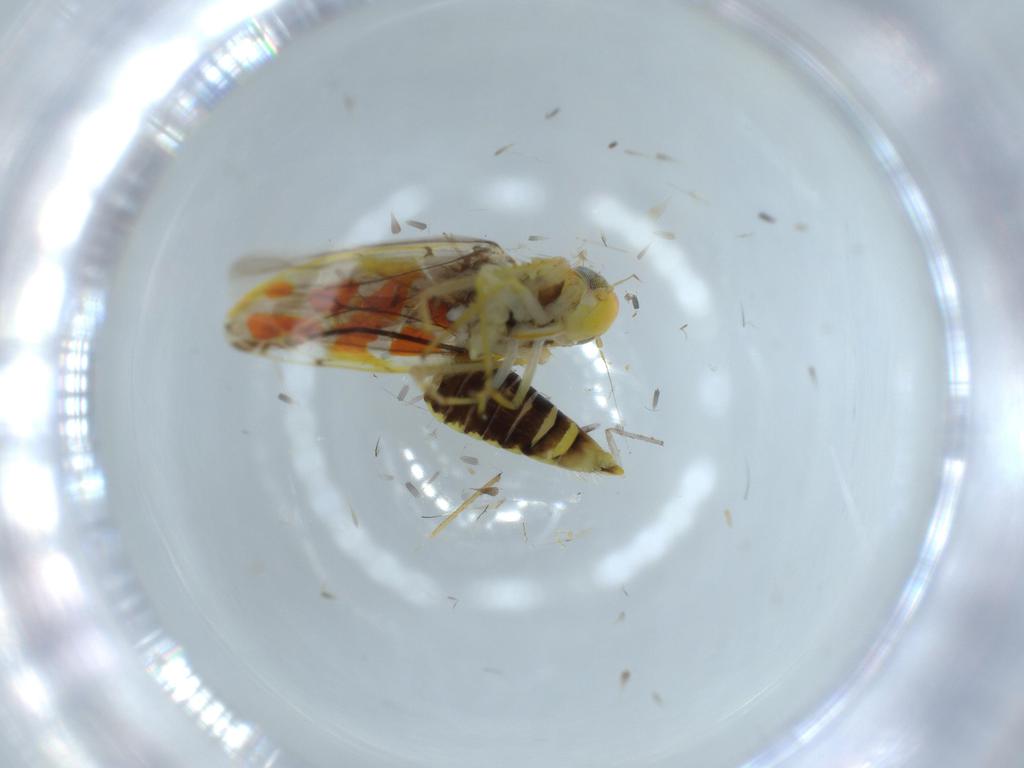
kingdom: Animalia
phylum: Arthropoda
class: Insecta
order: Hemiptera
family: Cicadellidae
